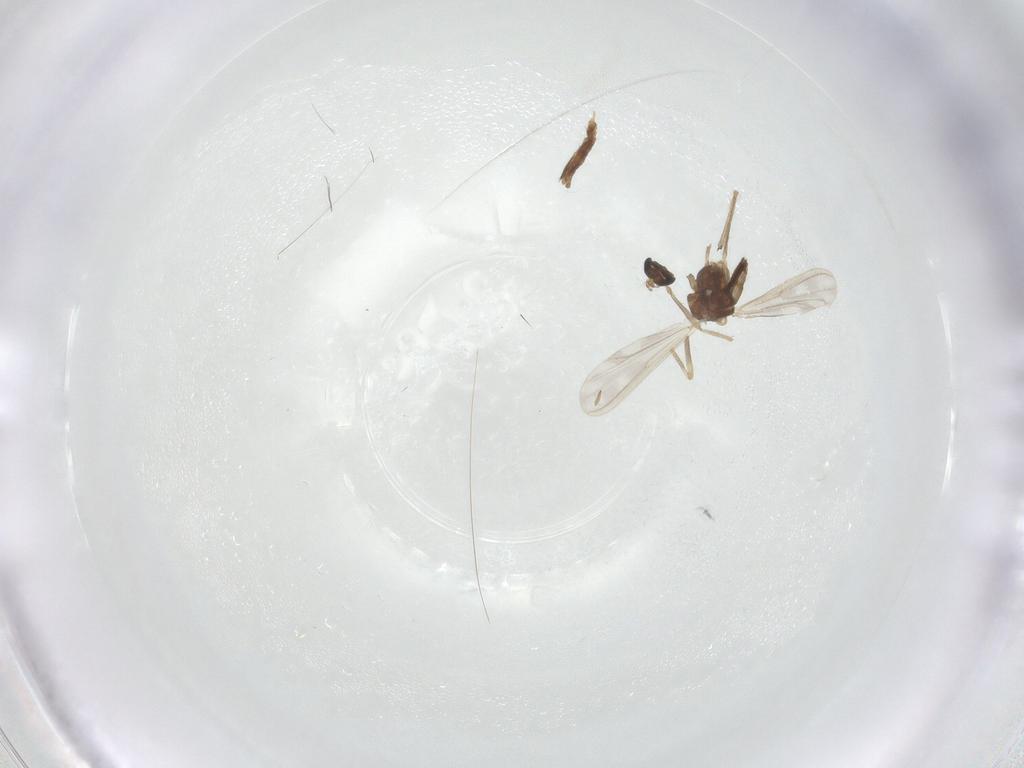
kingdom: Animalia
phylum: Arthropoda
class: Insecta
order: Diptera
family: Chironomidae
